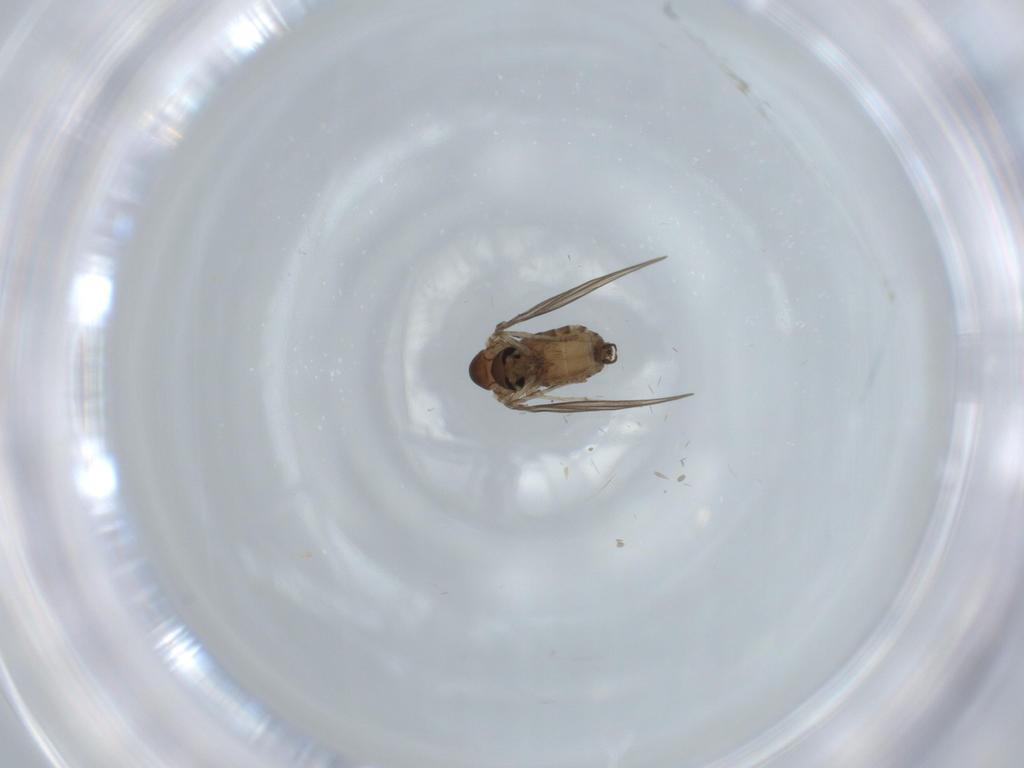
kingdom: Animalia
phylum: Arthropoda
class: Insecta
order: Diptera
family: Psychodidae
